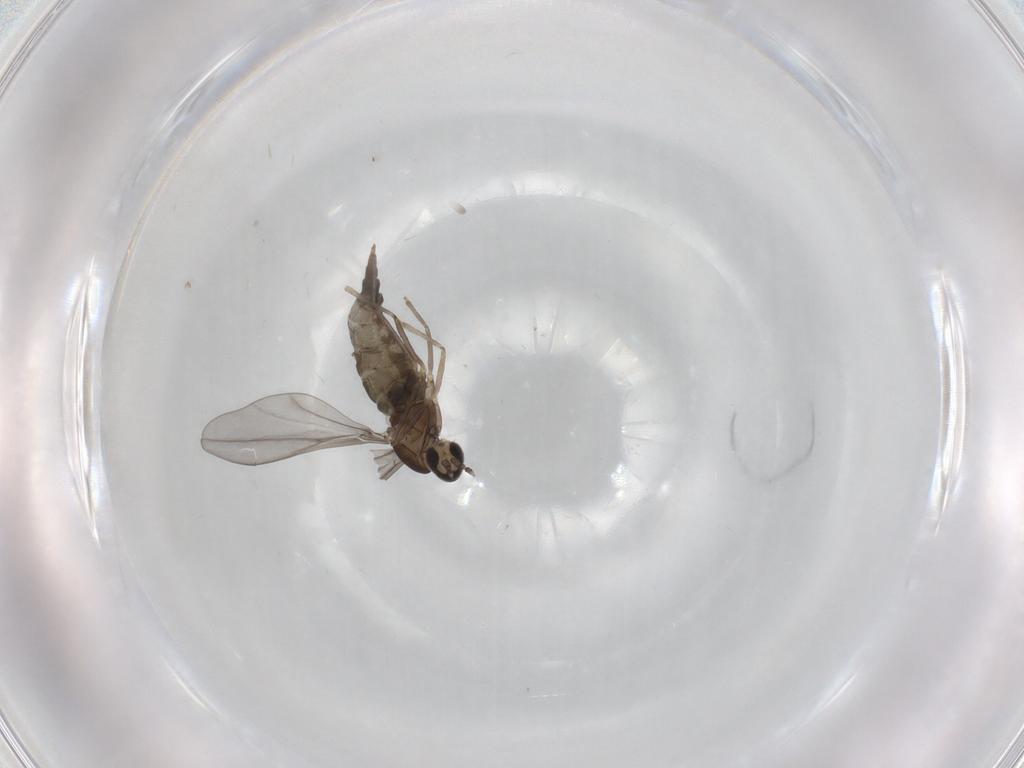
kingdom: Animalia
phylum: Arthropoda
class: Insecta
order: Diptera
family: Cecidomyiidae
